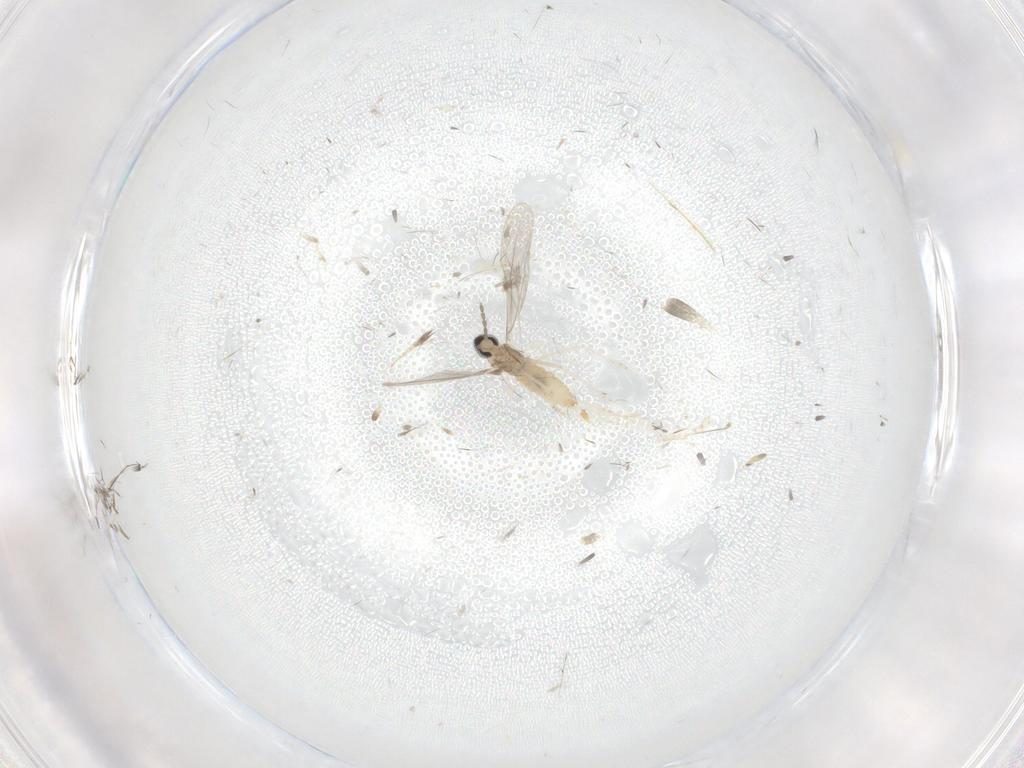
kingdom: Animalia
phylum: Arthropoda
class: Insecta
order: Diptera
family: Cecidomyiidae
